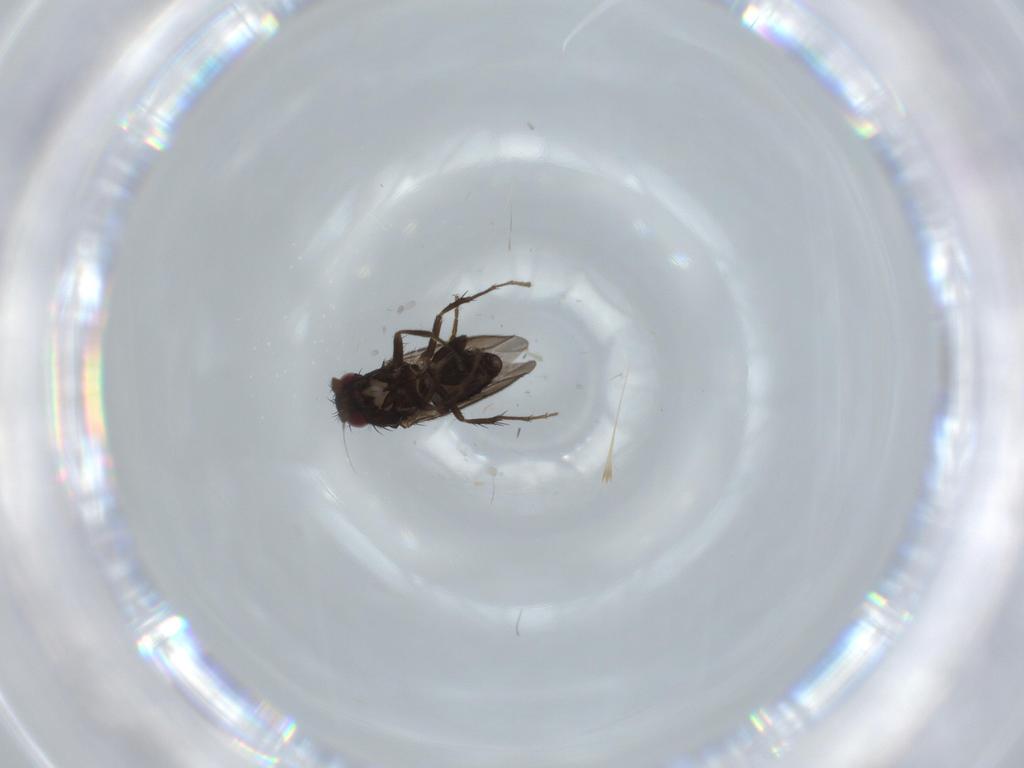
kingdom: Animalia
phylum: Arthropoda
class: Insecta
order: Diptera
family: Sphaeroceridae
